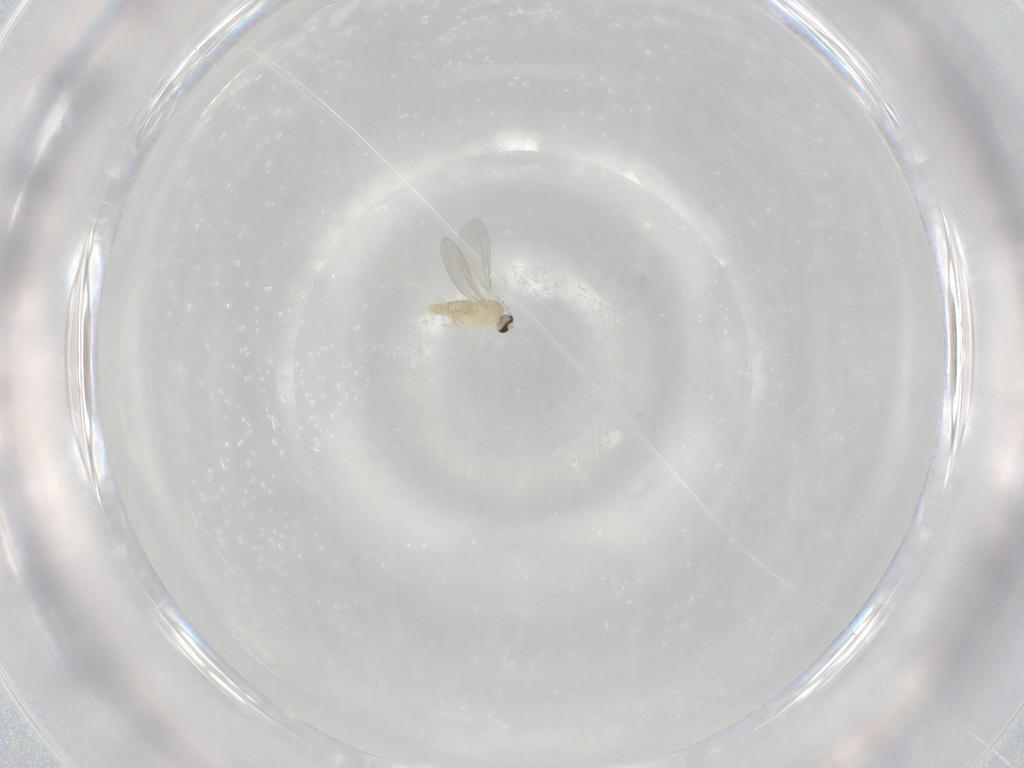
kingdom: Animalia
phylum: Arthropoda
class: Insecta
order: Diptera
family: Cecidomyiidae
